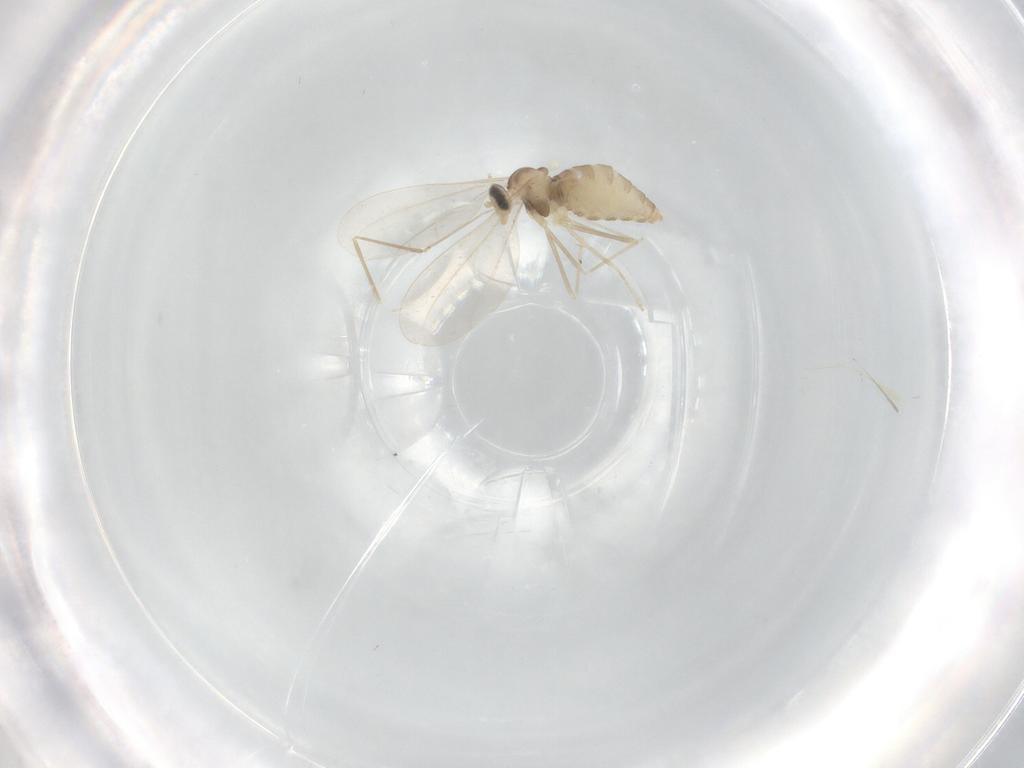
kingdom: Animalia
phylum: Arthropoda
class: Insecta
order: Diptera
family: Cecidomyiidae
